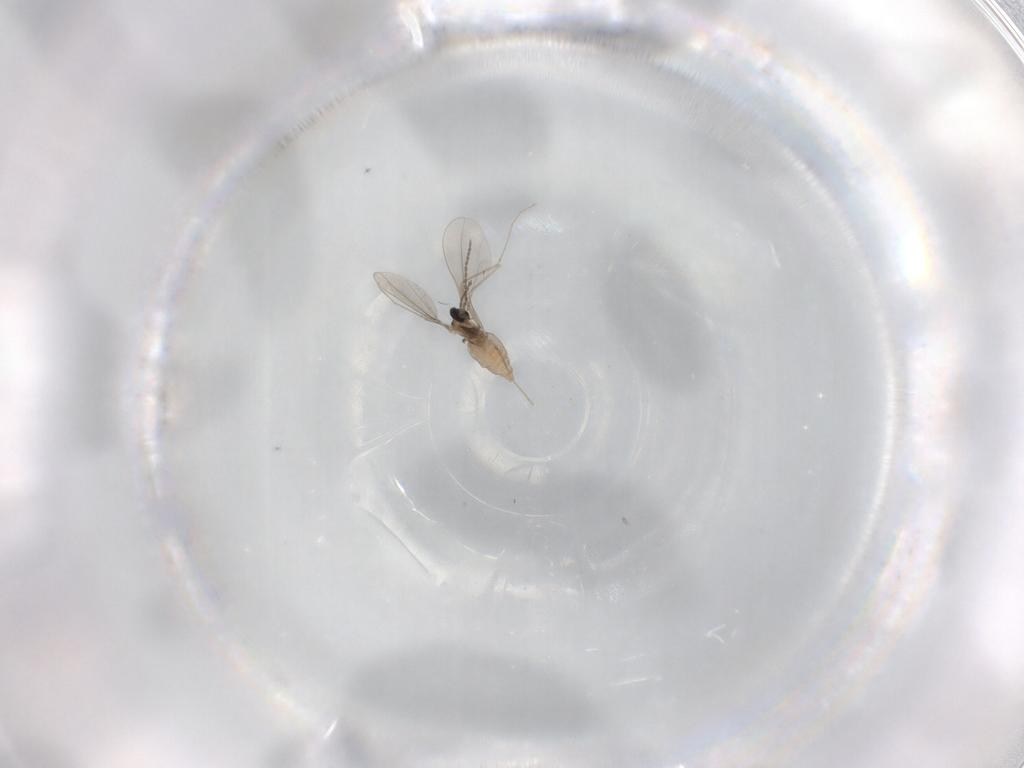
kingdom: Animalia
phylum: Arthropoda
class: Insecta
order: Diptera
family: Cecidomyiidae
